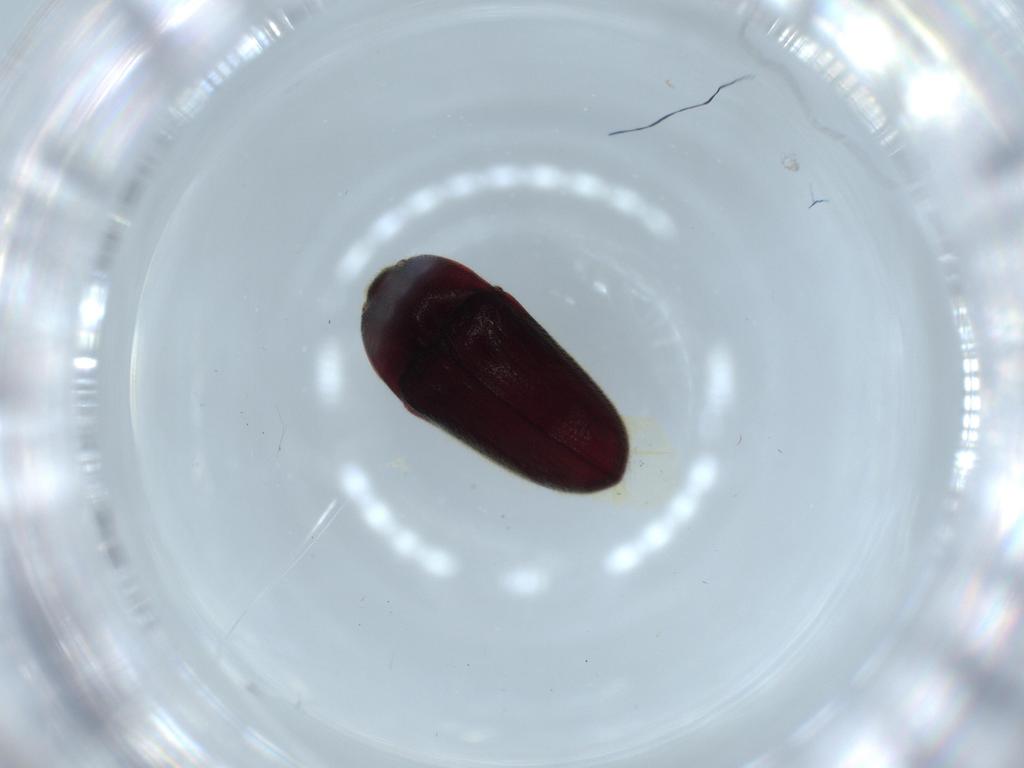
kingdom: Animalia
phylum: Arthropoda
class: Insecta
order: Coleoptera
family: Throscidae
